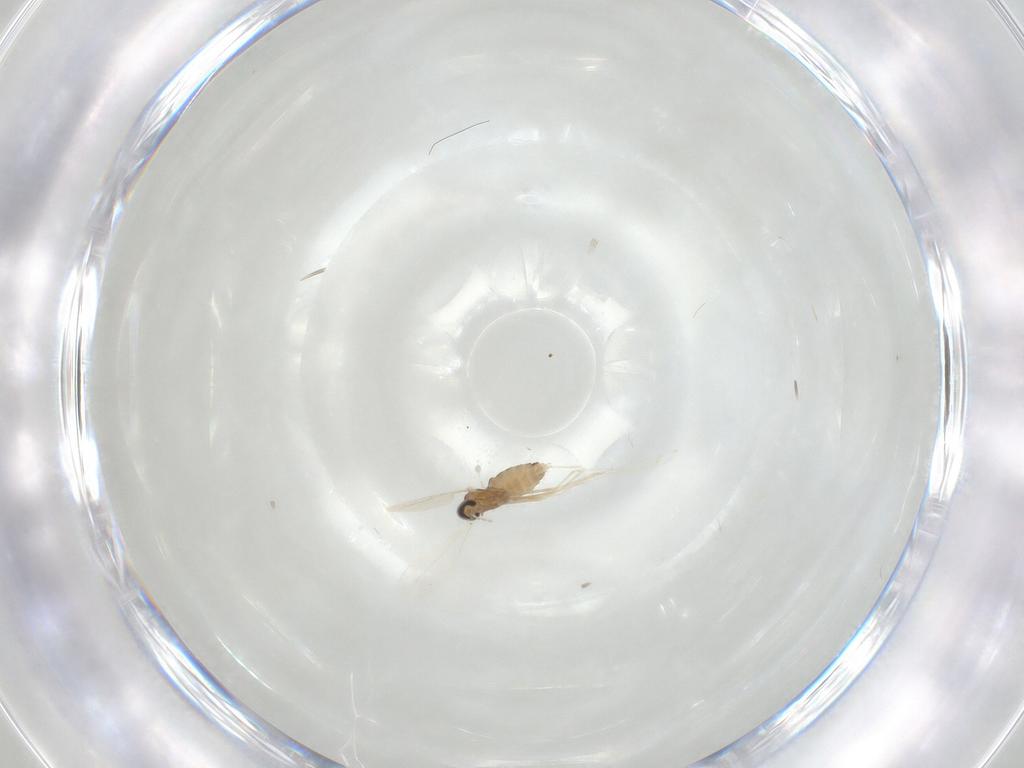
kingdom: Animalia
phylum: Arthropoda
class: Insecta
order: Diptera
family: Cecidomyiidae
